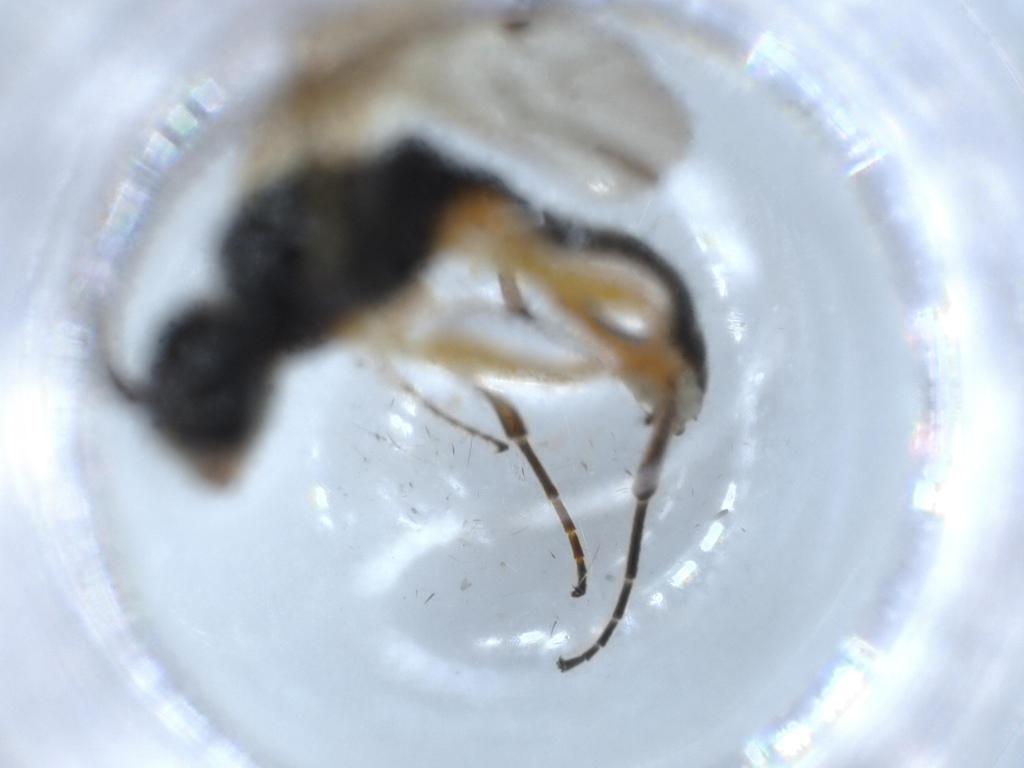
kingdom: Animalia
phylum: Arthropoda
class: Insecta
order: Hymenoptera
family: Diapriidae
